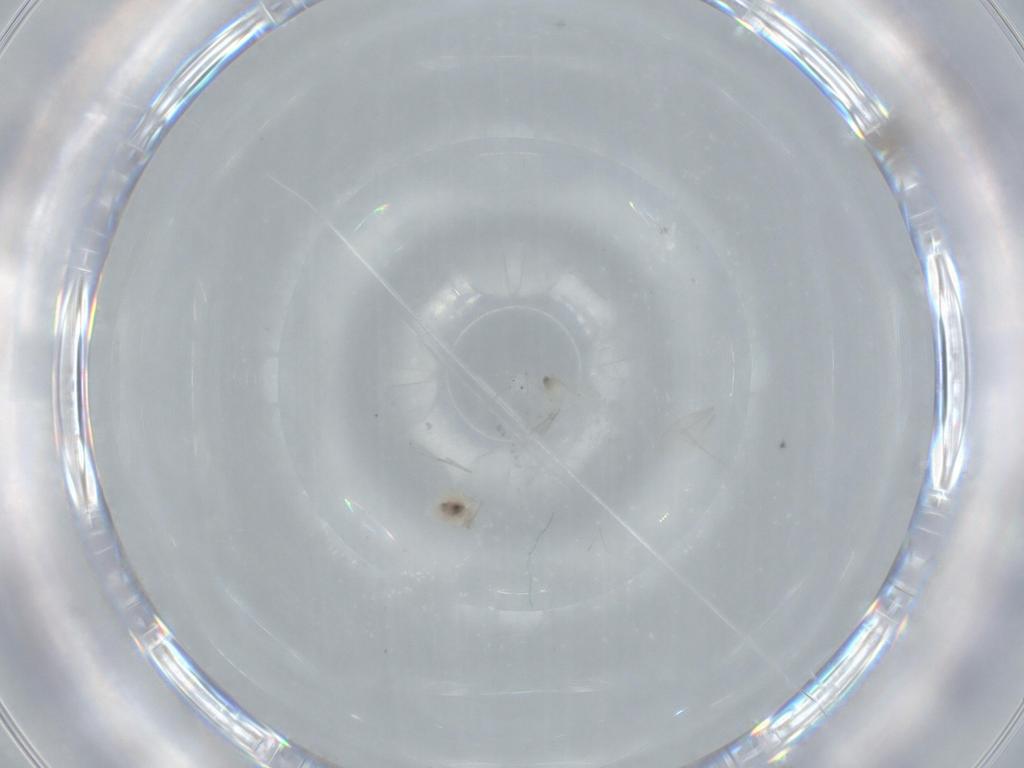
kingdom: Animalia
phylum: Arthropoda
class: Insecta
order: Diptera
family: Cecidomyiidae
